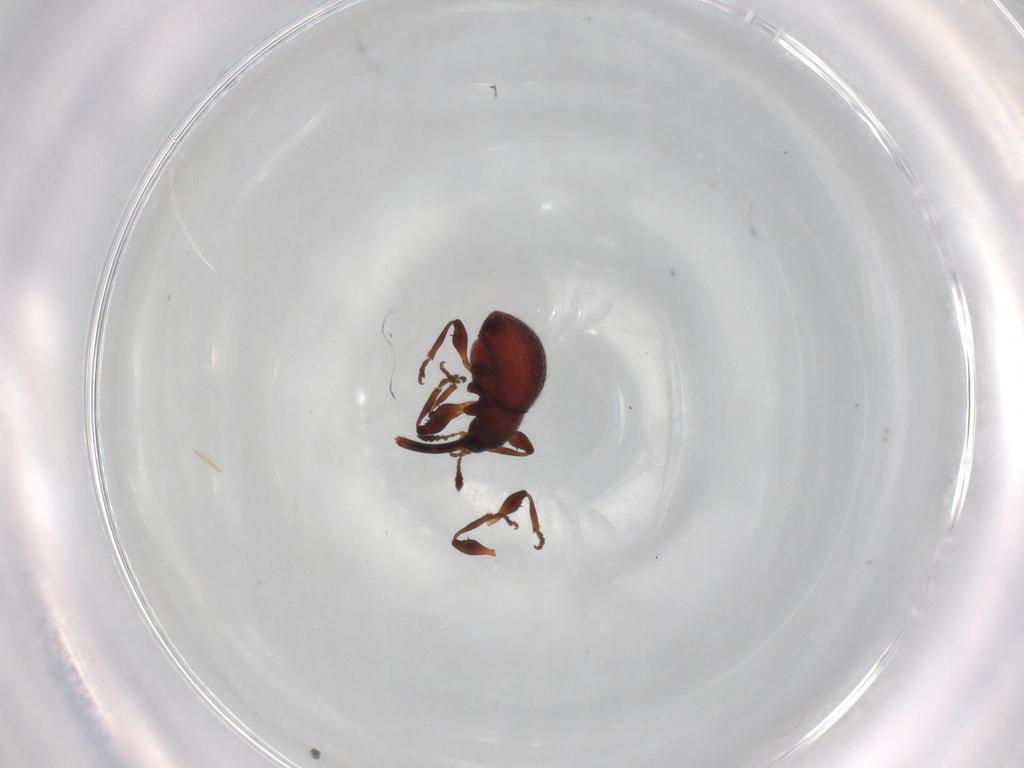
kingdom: Animalia
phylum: Arthropoda
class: Insecta
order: Coleoptera
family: Brentidae
